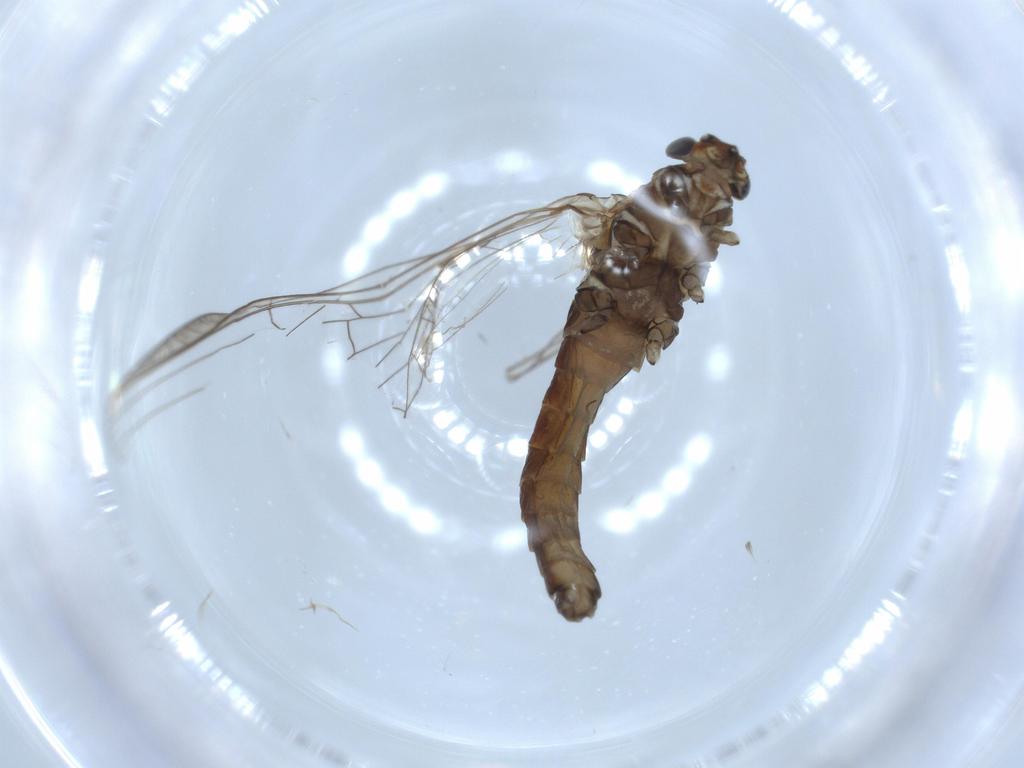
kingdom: Animalia
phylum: Arthropoda
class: Insecta
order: Ephemeroptera
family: Baetidae
